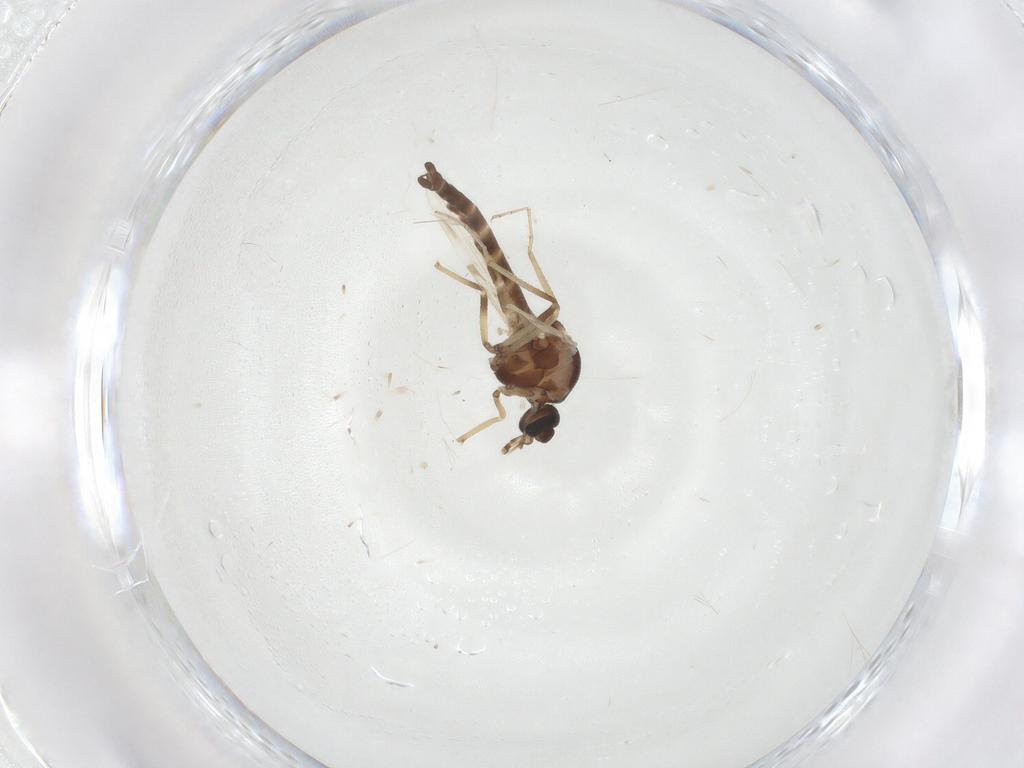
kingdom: Animalia
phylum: Arthropoda
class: Insecta
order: Diptera
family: Ceratopogonidae
